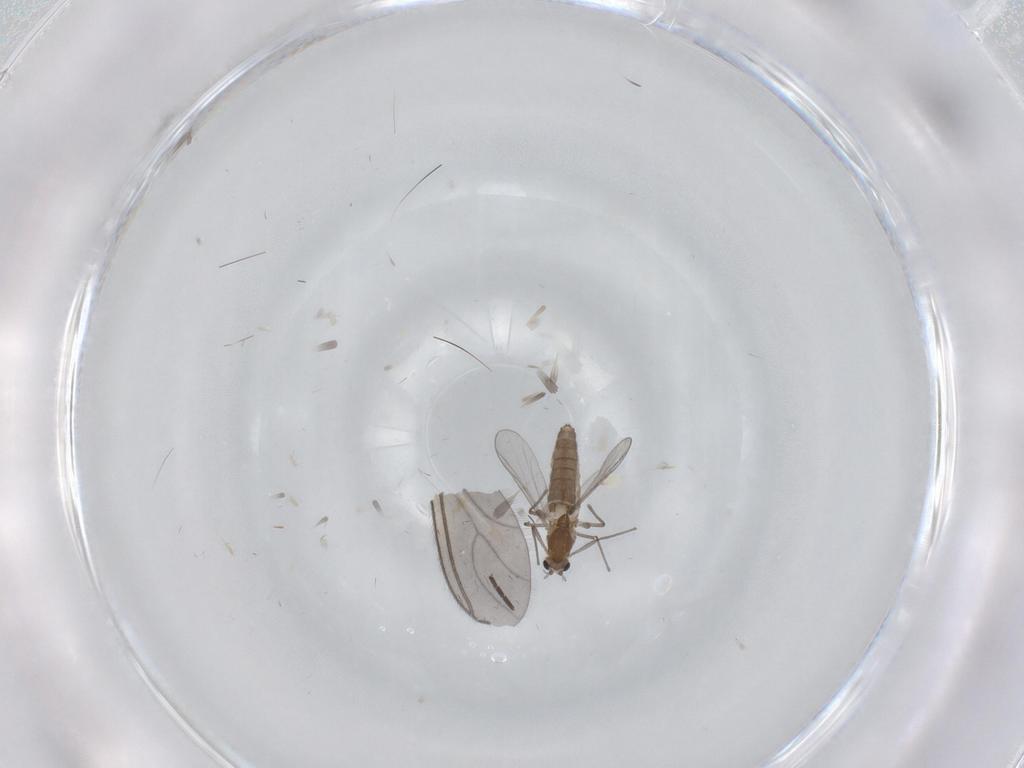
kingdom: Animalia
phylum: Arthropoda
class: Insecta
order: Diptera
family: Chironomidae
